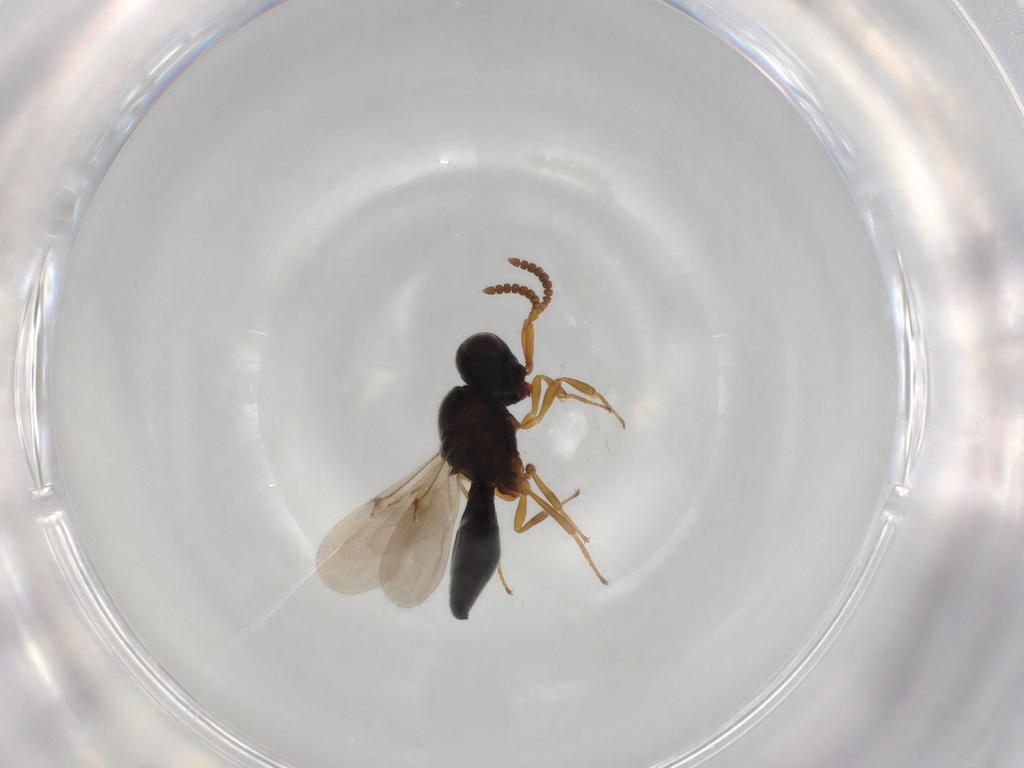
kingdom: Animalia
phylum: Arthropoda
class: Insecta
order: Hymenoptera
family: Scelionidae
